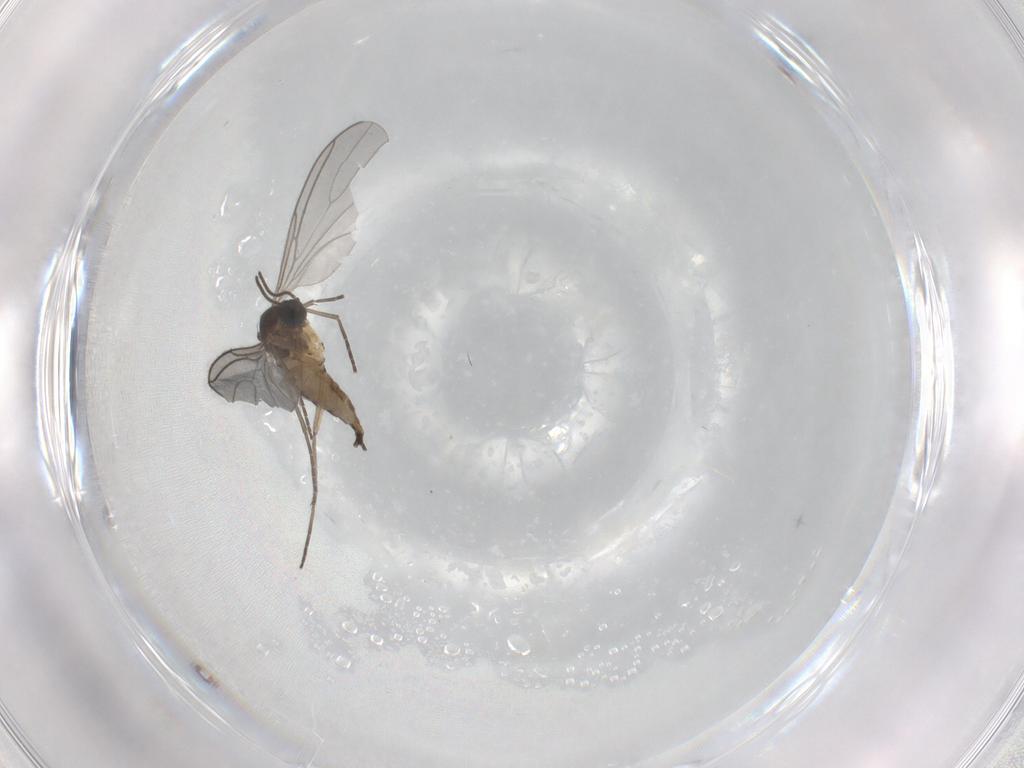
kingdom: Animalia
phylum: Arthropoda
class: Insecta
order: Diptera
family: Sciaridae
